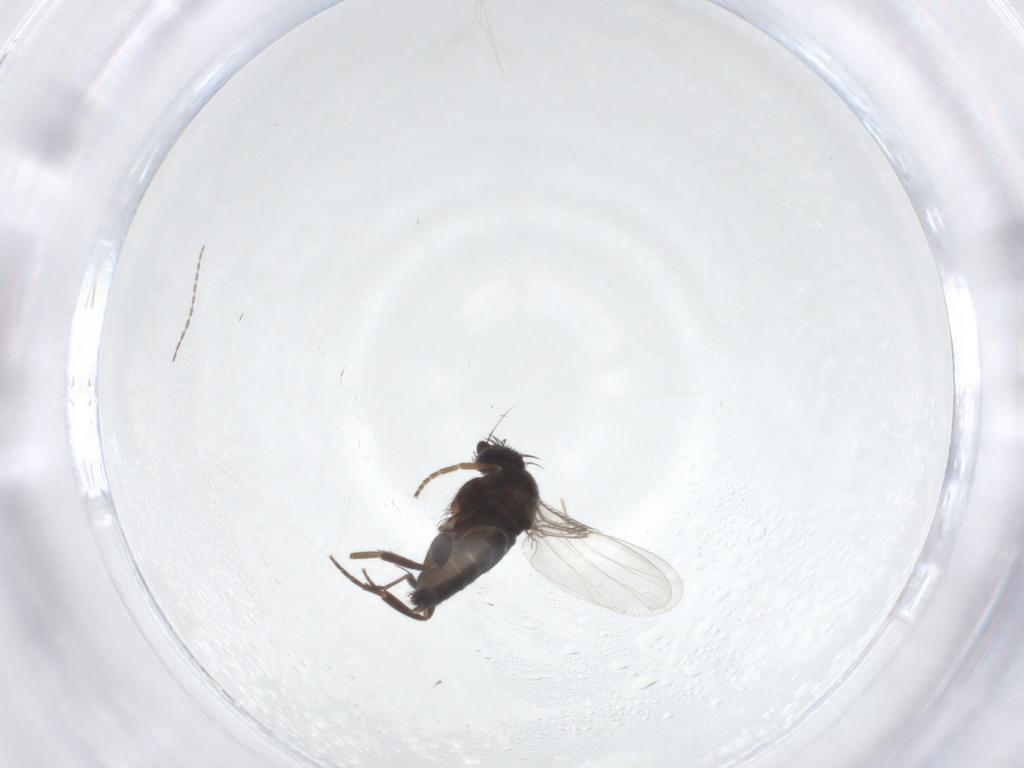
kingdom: Animalia
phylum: Arthropoda
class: Insecta
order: Diptera
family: Phoridae
